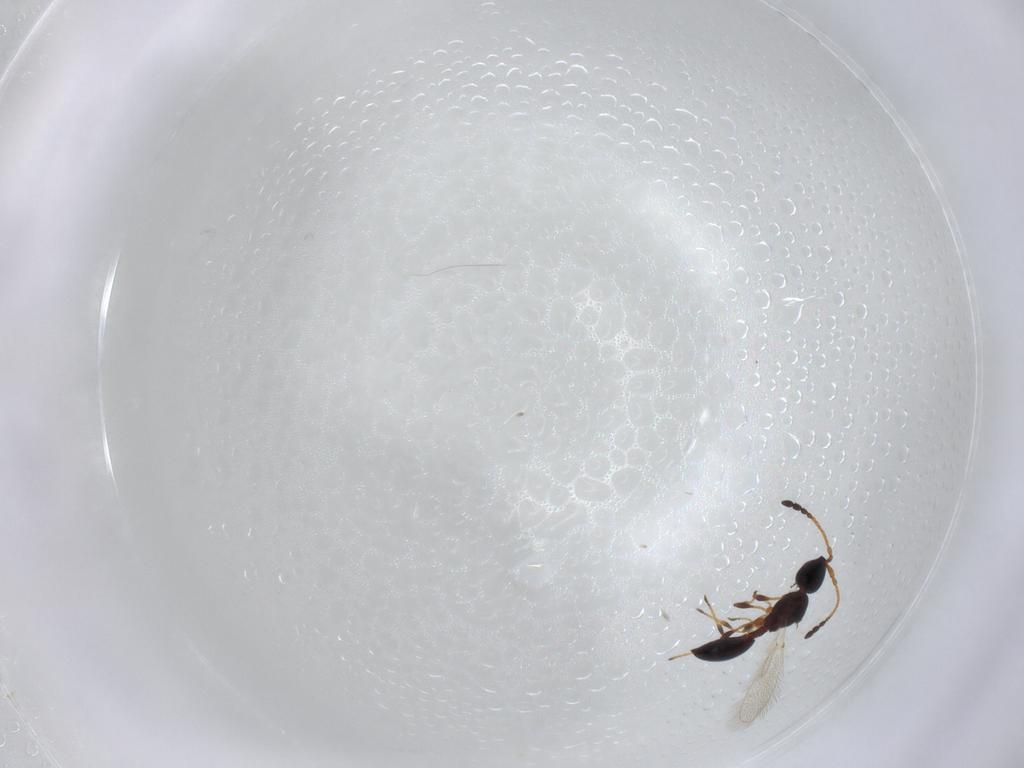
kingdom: Animalia
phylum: Arthropoda
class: Insecta
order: Hymenoptera
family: Diapriidae
